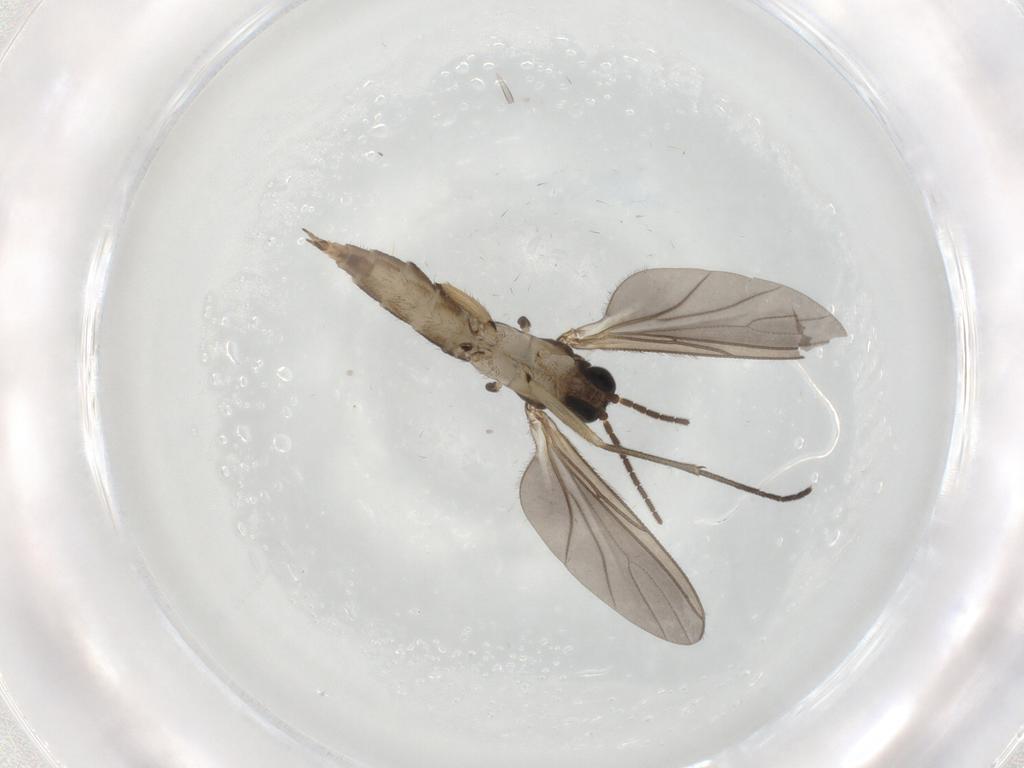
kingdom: Animalia
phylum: Arthropoda
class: Insecta
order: Diptera
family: Sciaridae
